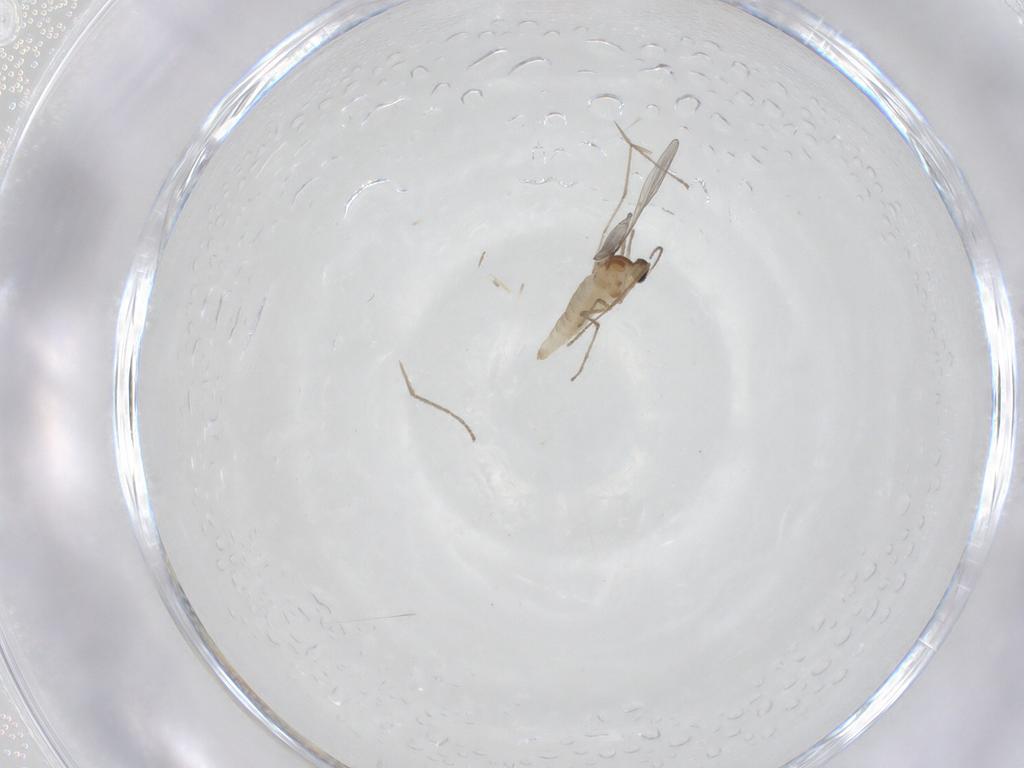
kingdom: Animalia
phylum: Arthropoda
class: Insecta
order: Diptera
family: Cecidomyiidae
